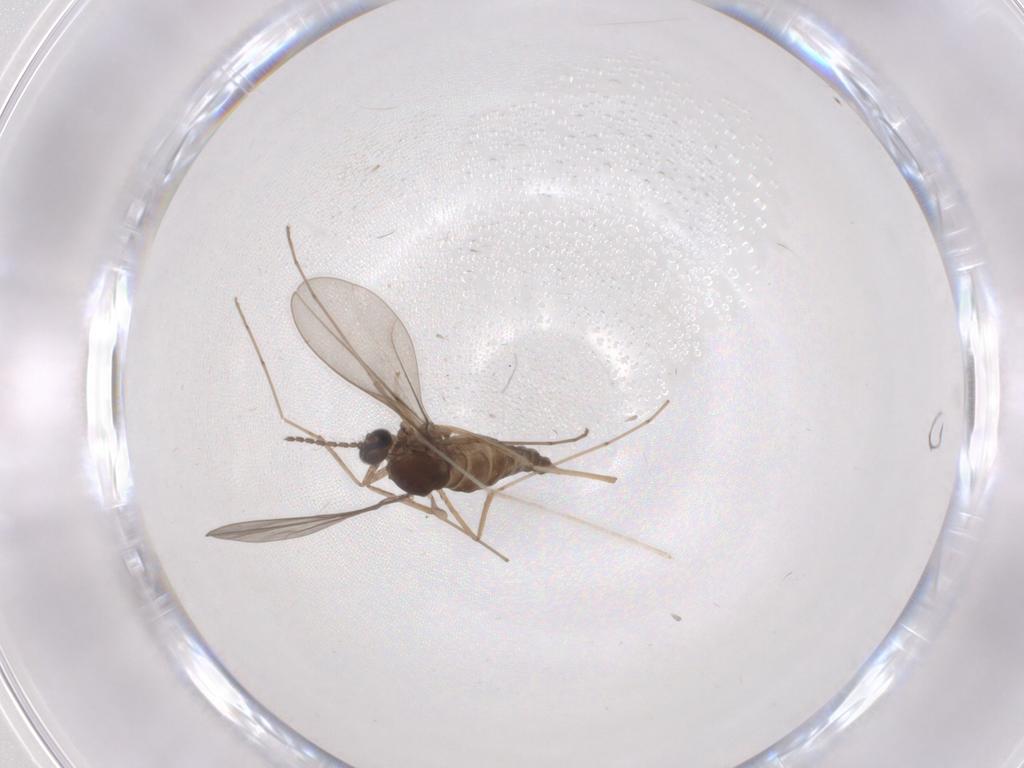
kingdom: Animalia
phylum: Arthropoda
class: Insecta
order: Diptera
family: Cecidomyiidae
